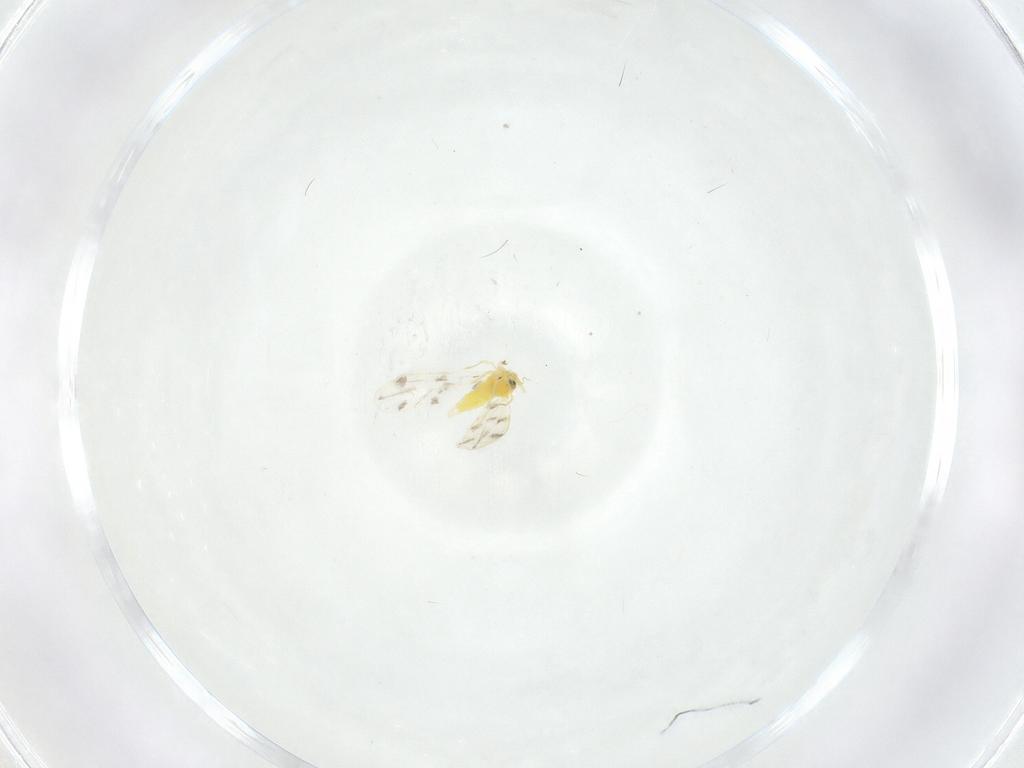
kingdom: Animalia
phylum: Arthropoda
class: Insecta
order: Hemiptera
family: Aleyrodidae
